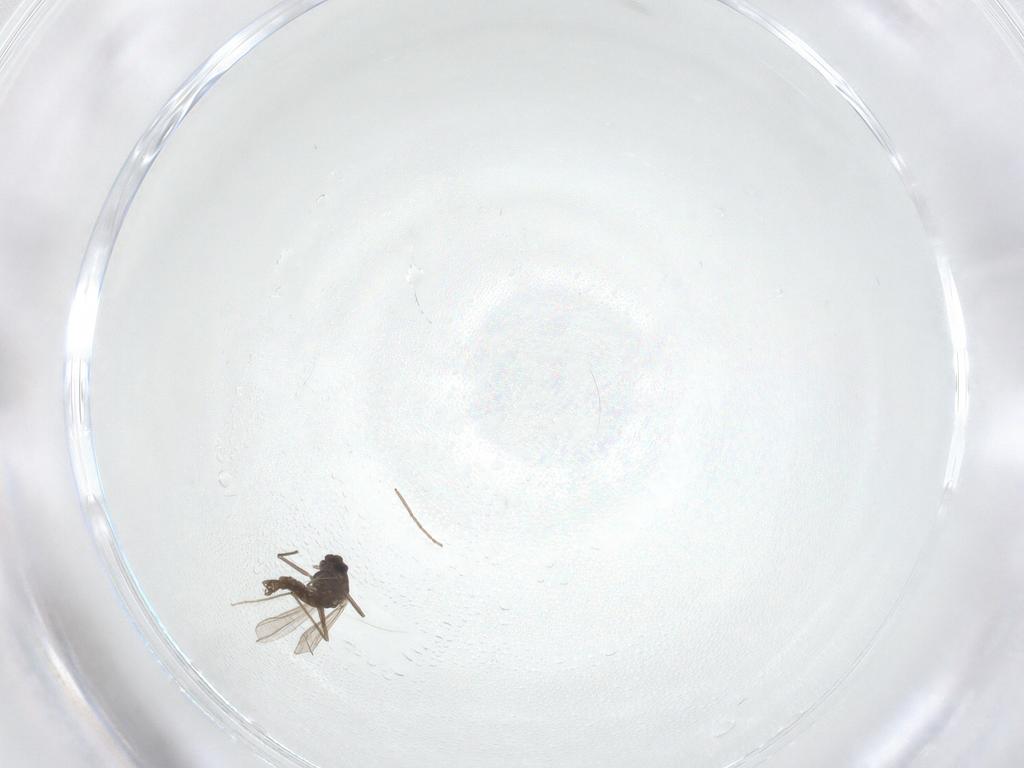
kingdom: Animalia
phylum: Arthropoda
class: Insecta
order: Diptera
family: Chironomidae
